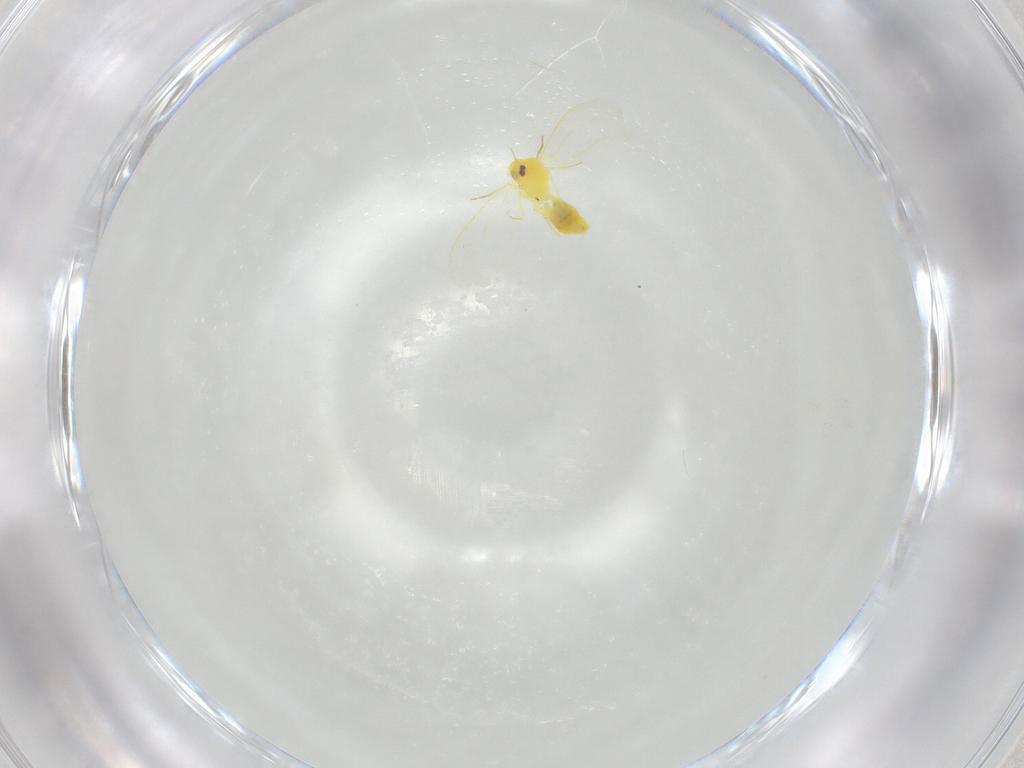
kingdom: Animalia
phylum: Arthropoda
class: Insecta
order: Hemiptera
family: Aleyrodidae
